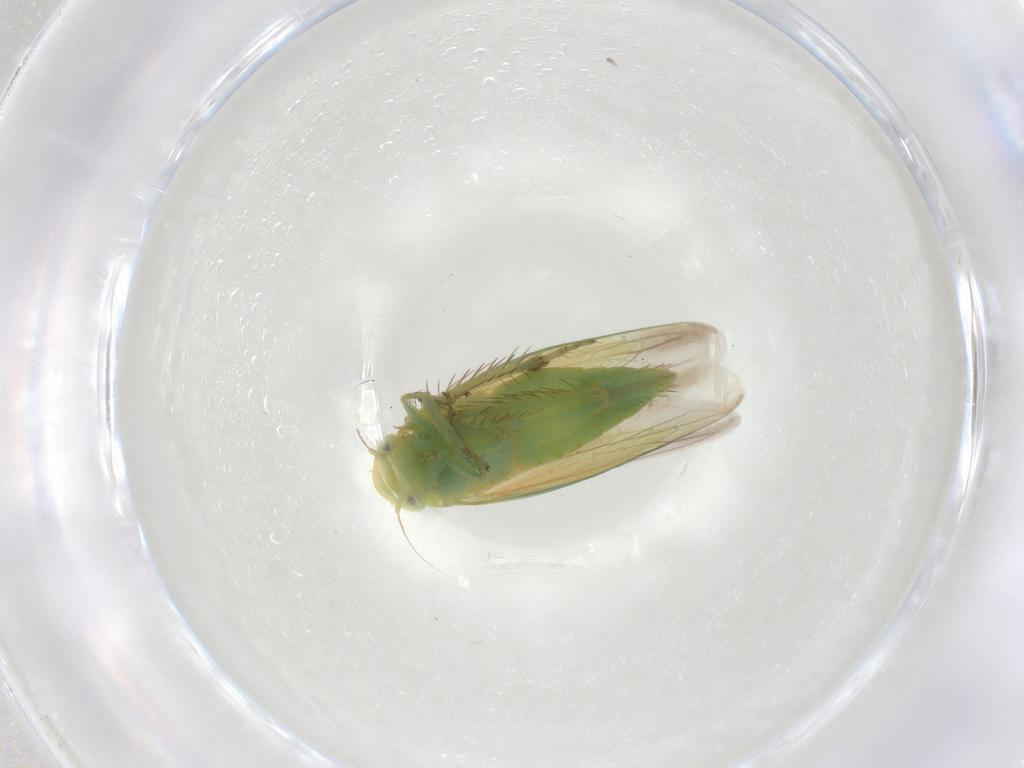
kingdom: Animalia
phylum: Arthropoda
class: Insecta
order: Hemiptera
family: Cicadellidae
